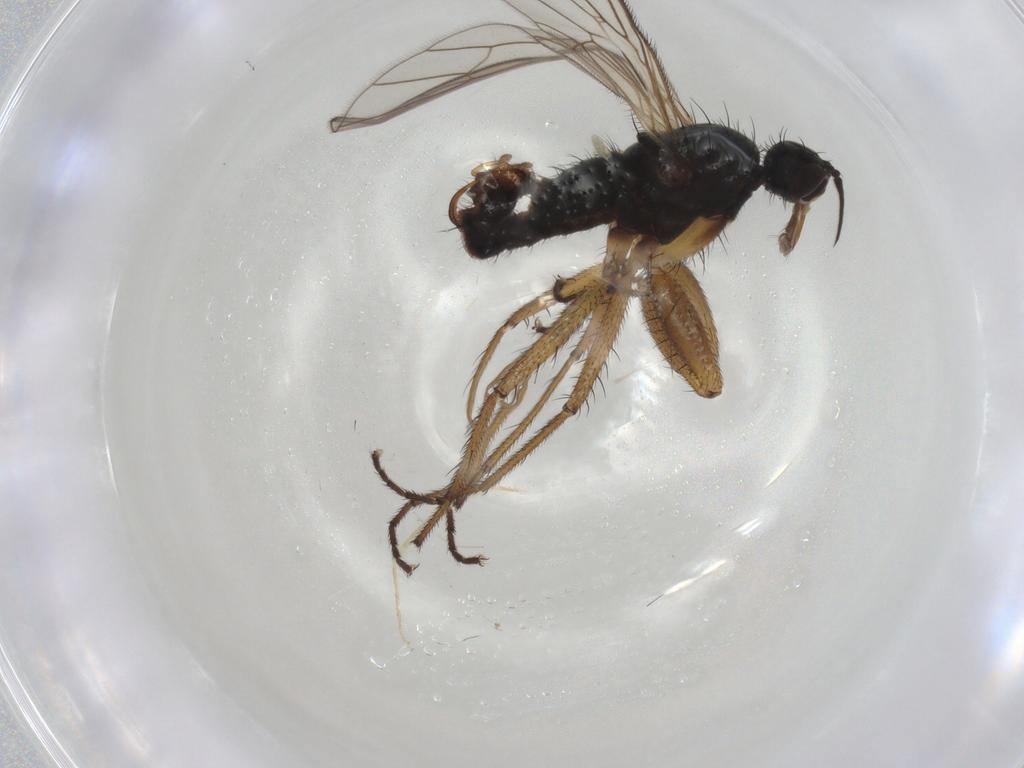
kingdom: Animalia
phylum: Arthropoda
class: Insecta
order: Diptera
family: Empididae
